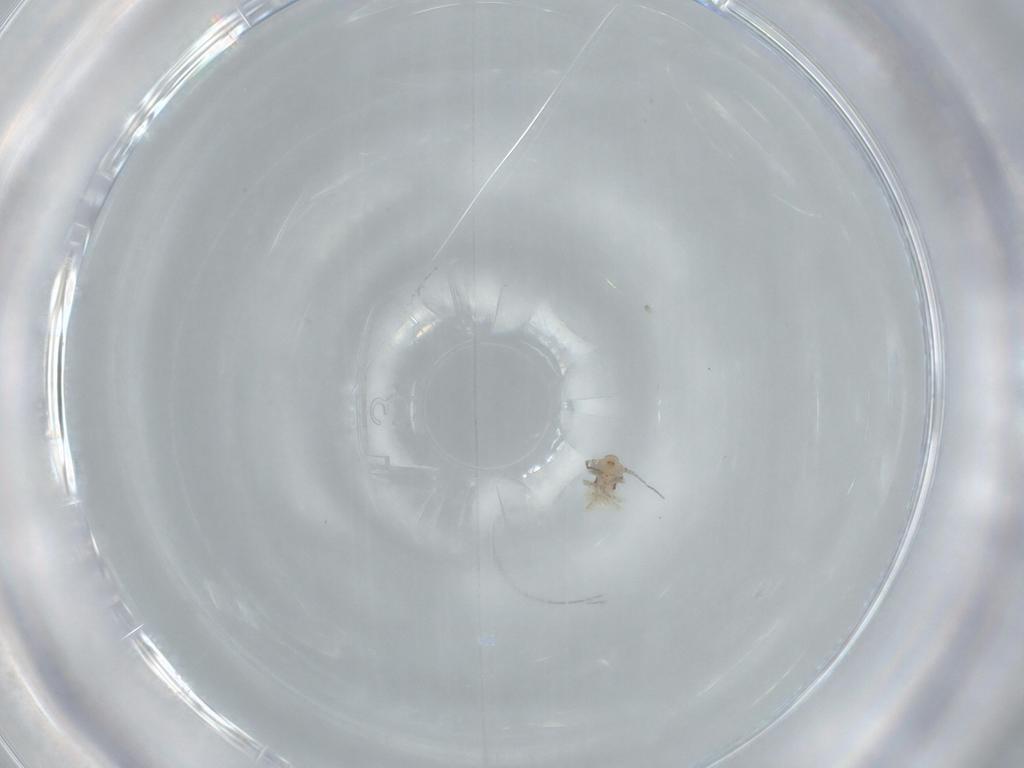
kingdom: Animalia
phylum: Arthropoda
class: Insecta
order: Psocodea
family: Lepidopsocidae
